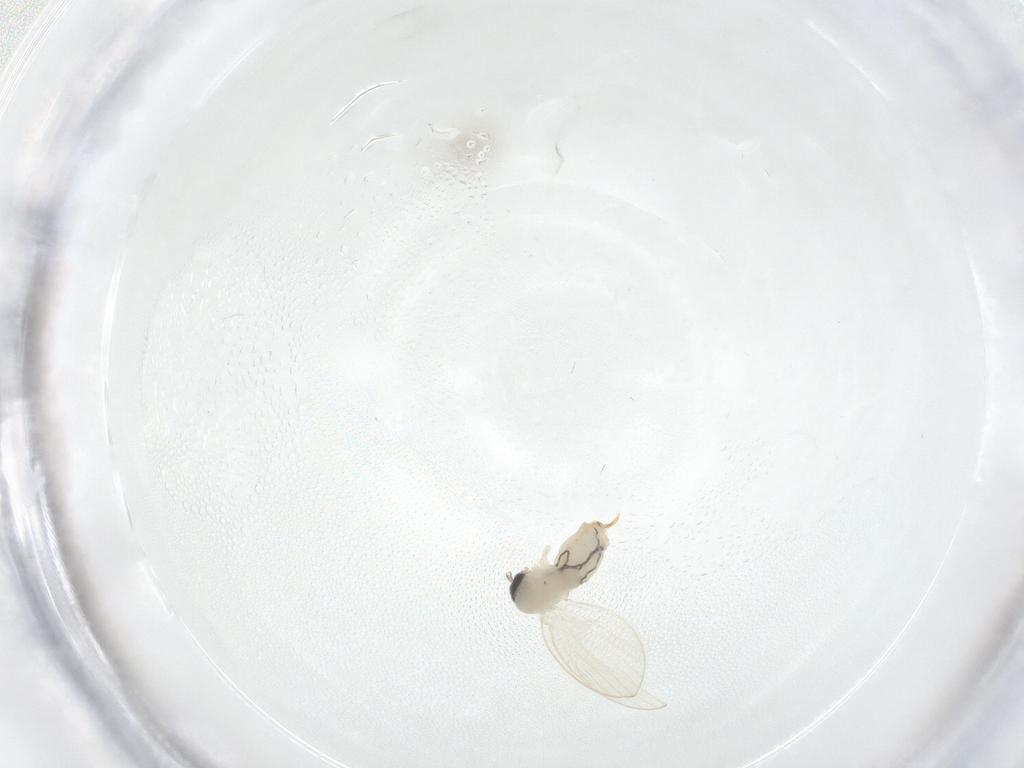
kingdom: Animalia
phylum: Arthropoda
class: Insecta
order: Diptera
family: Psychodidae
